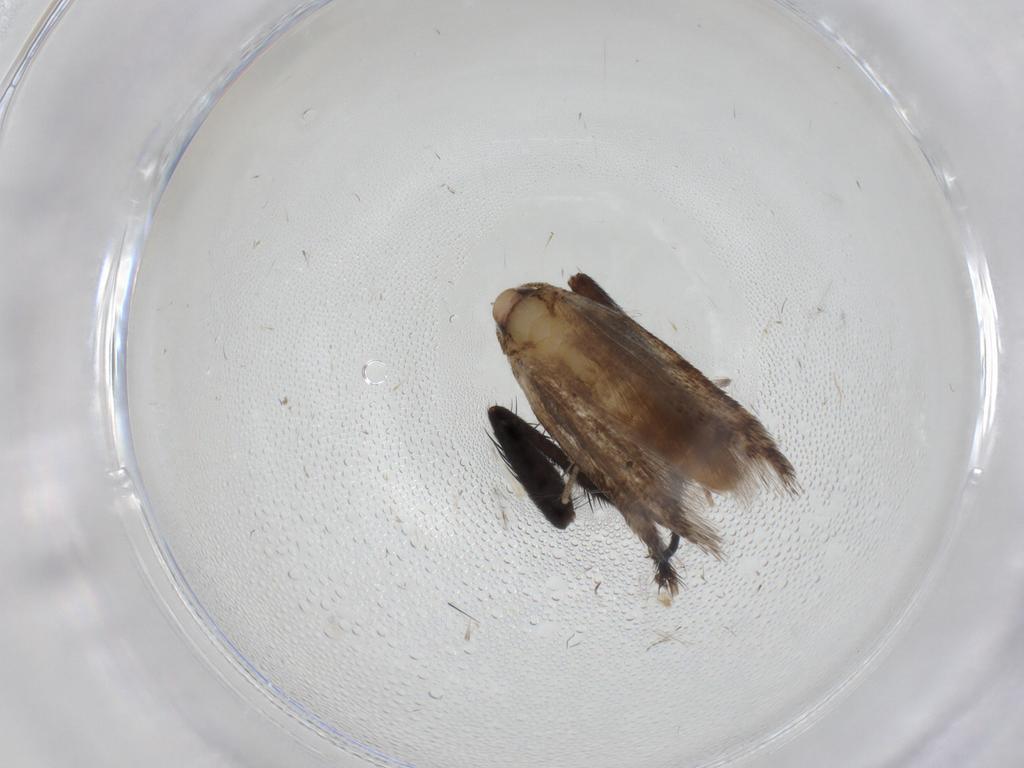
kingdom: Animalia
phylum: Arthropoda
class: Insecta
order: Lepidoptera
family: Cosmopterigidae
